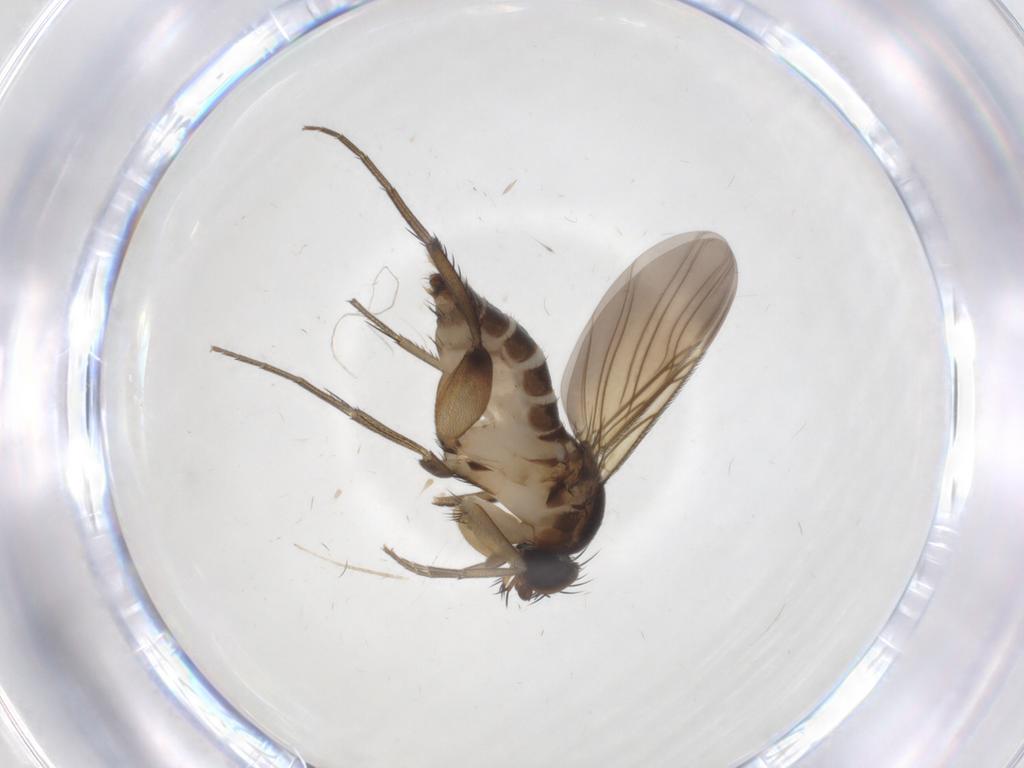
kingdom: Animalia
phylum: Arthropoda
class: Insecta
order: Diptera
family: Phoridae
